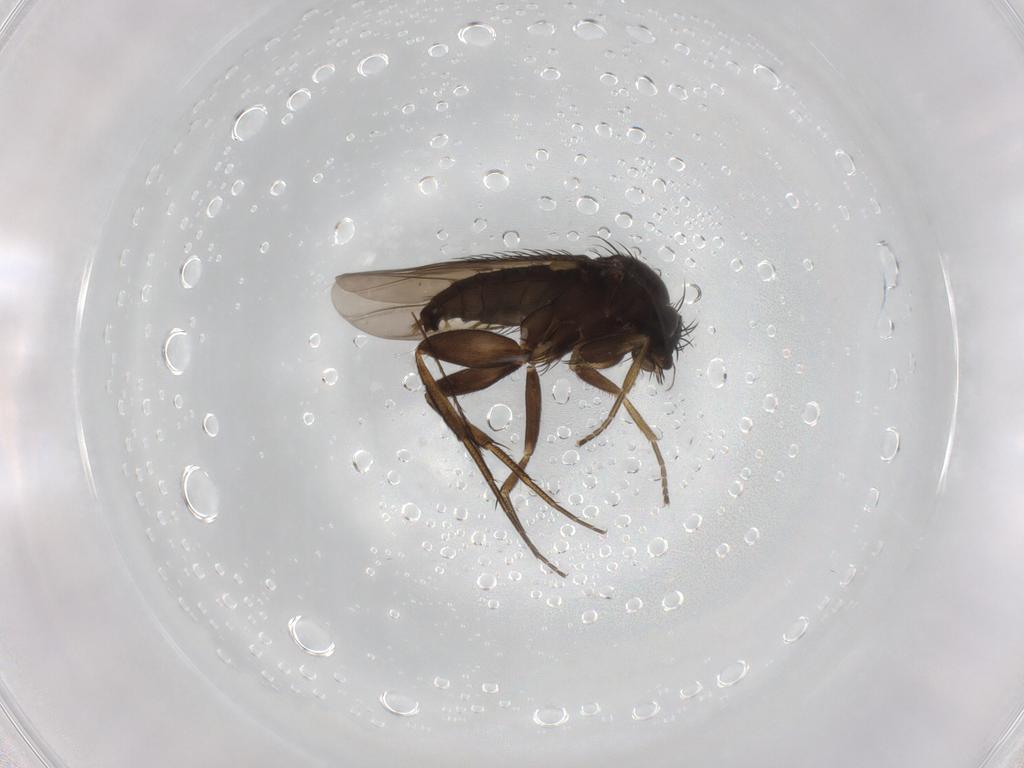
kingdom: Animalia
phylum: Arthropoda
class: Insecta
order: Diptera
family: Phoridae
